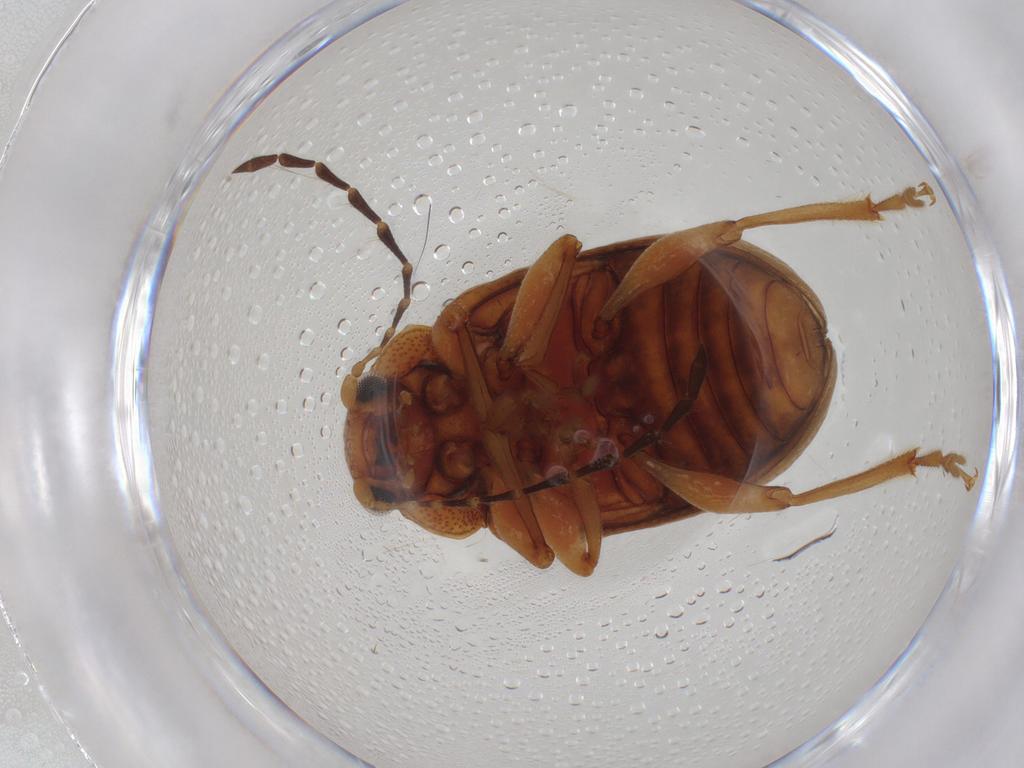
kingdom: Animalia
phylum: Arthropoda
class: Insecta
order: Coleoptera
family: Chrysomelidae
